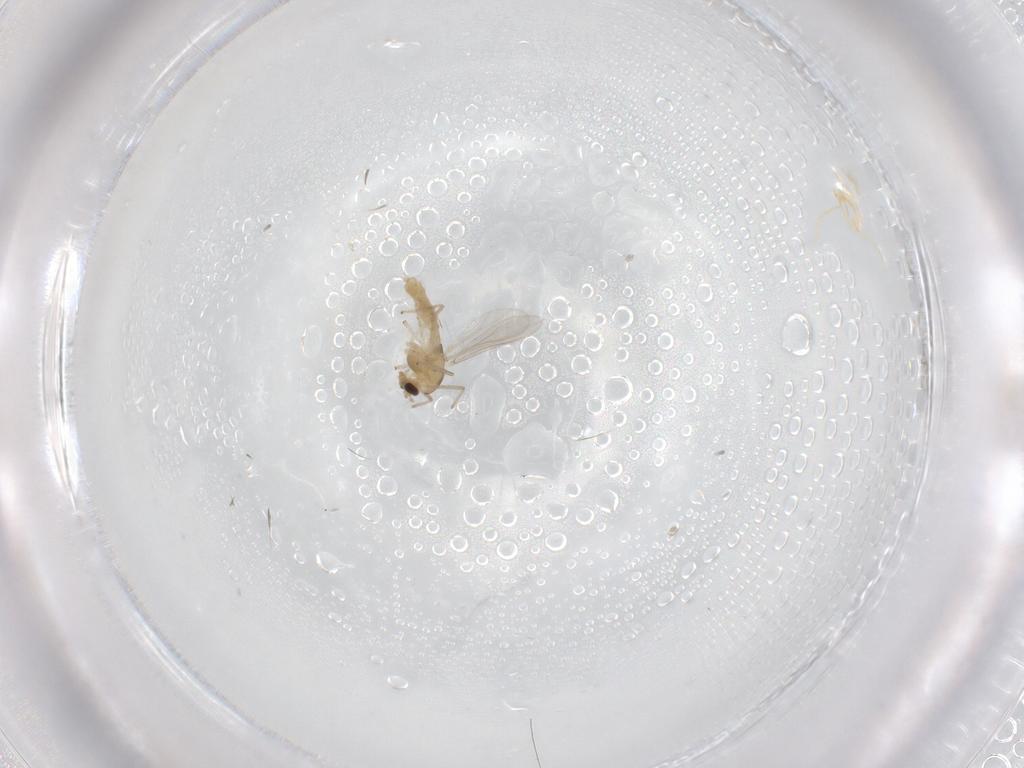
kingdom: Animalia
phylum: Arthropoda
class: Insecta
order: Diptera
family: Chironomidae
